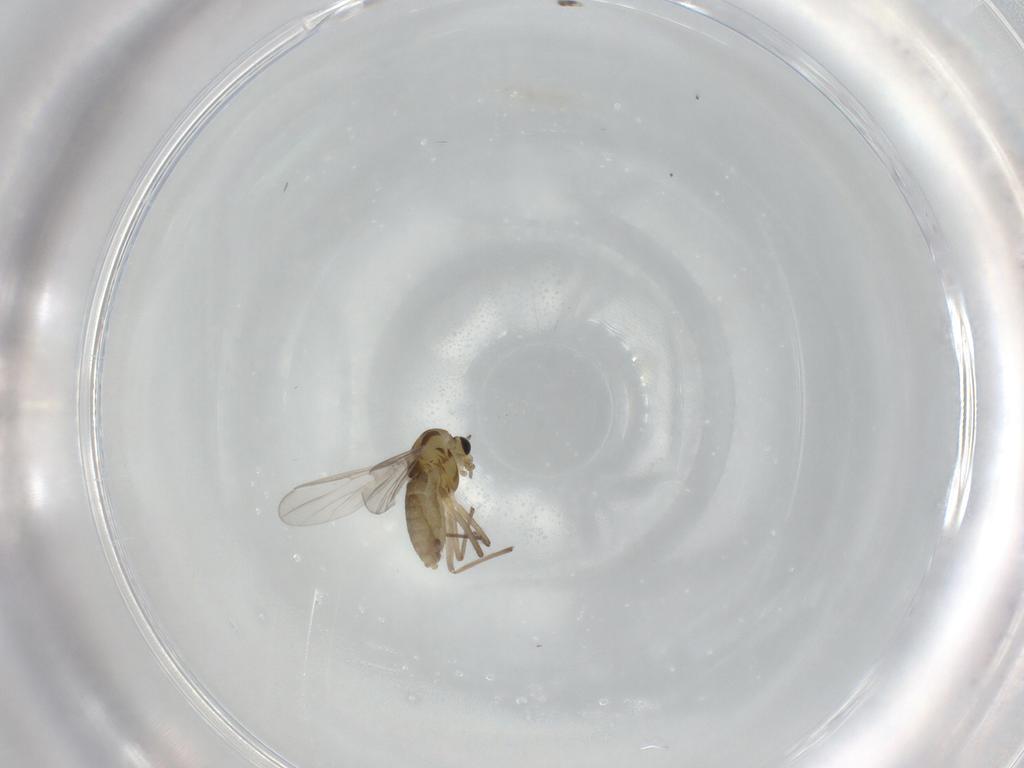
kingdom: Animalia
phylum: Arthropoda
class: Insecta
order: Diptera
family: Chironomidae
